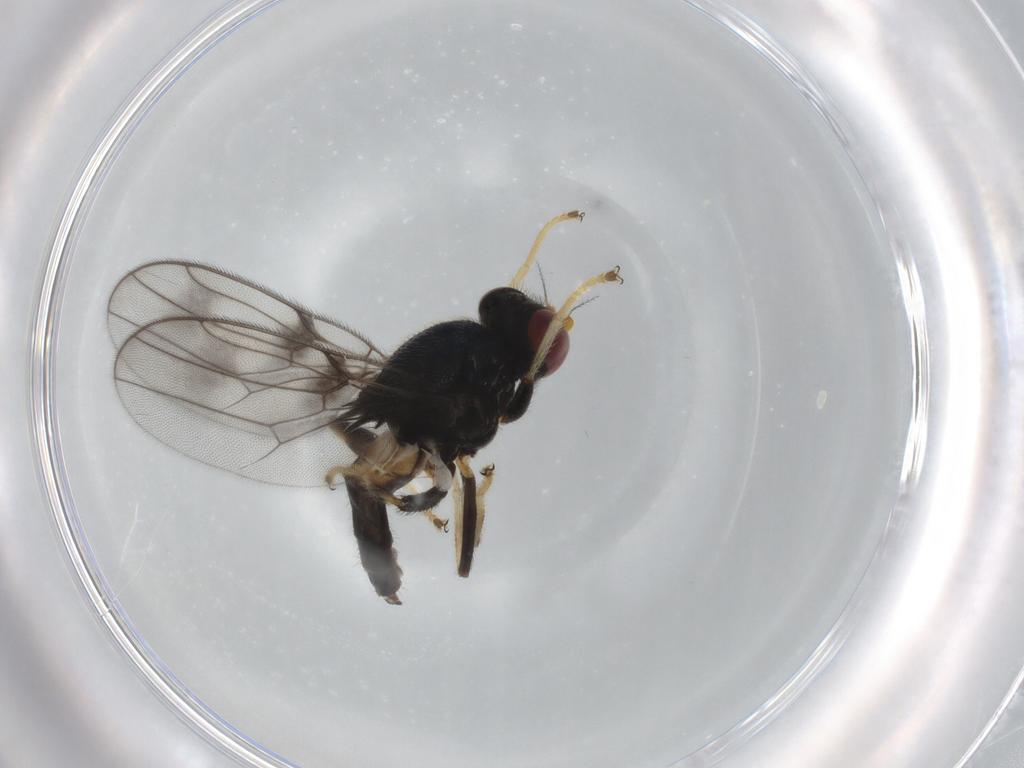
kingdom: Animalia
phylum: Arthropoda
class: Insecta
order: Diptera
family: Chloropidae
